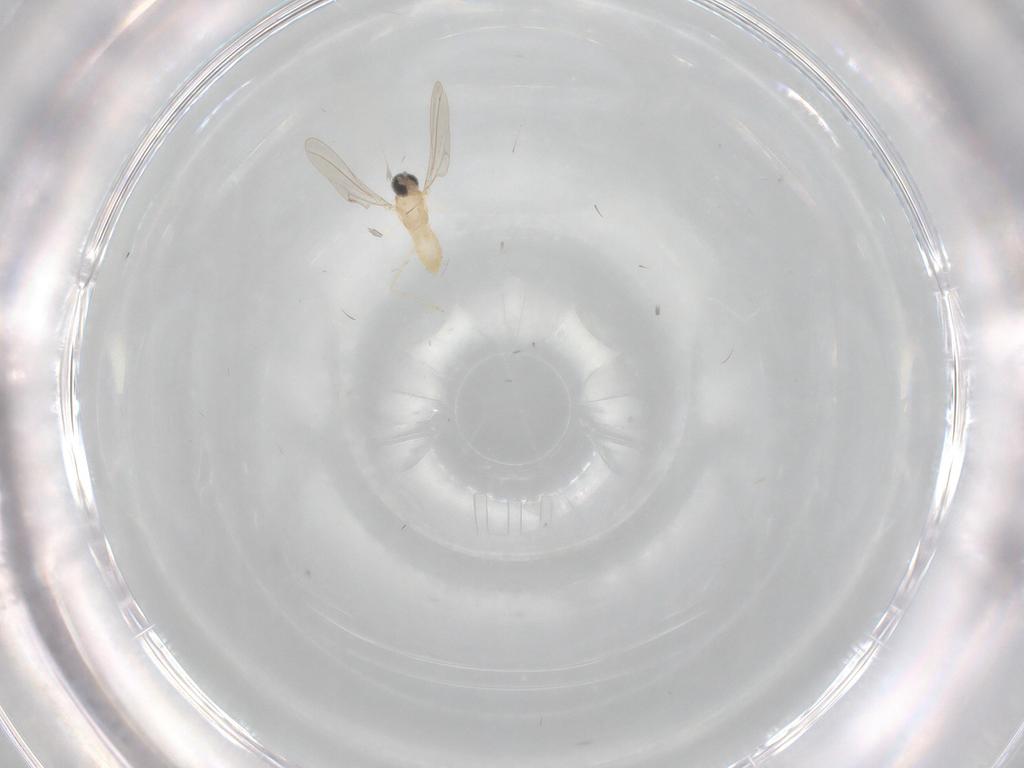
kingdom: Animalia
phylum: Arthropoda
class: Insecta
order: Diptera
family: Cecidomyiidae
